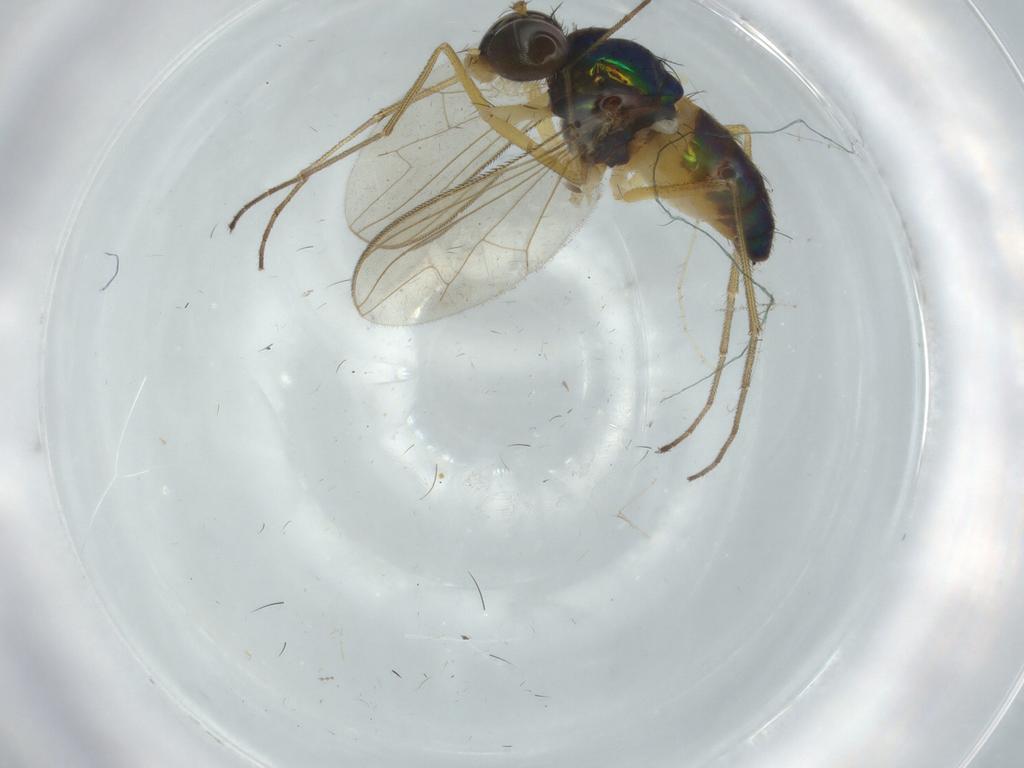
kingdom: Animalia
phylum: Arthropoda
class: Insecta
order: Diptera
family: Dolichopodidae
